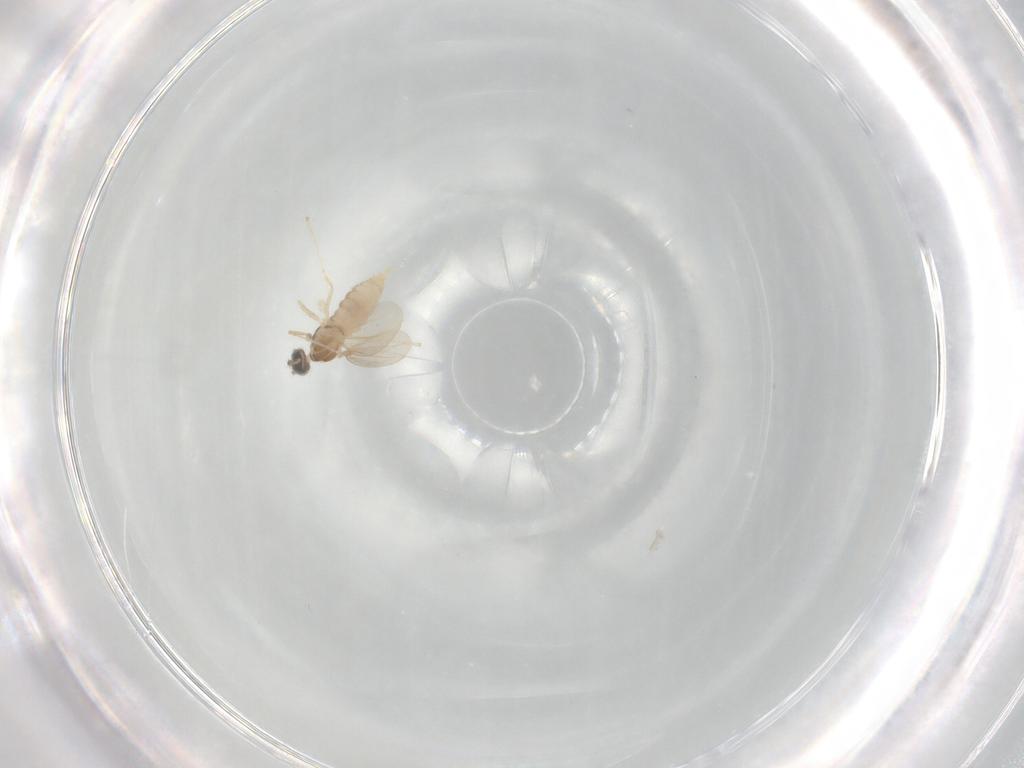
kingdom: Animalia
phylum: Arthropoda
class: Insecta
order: Diptera
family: Cecidomyiidae
